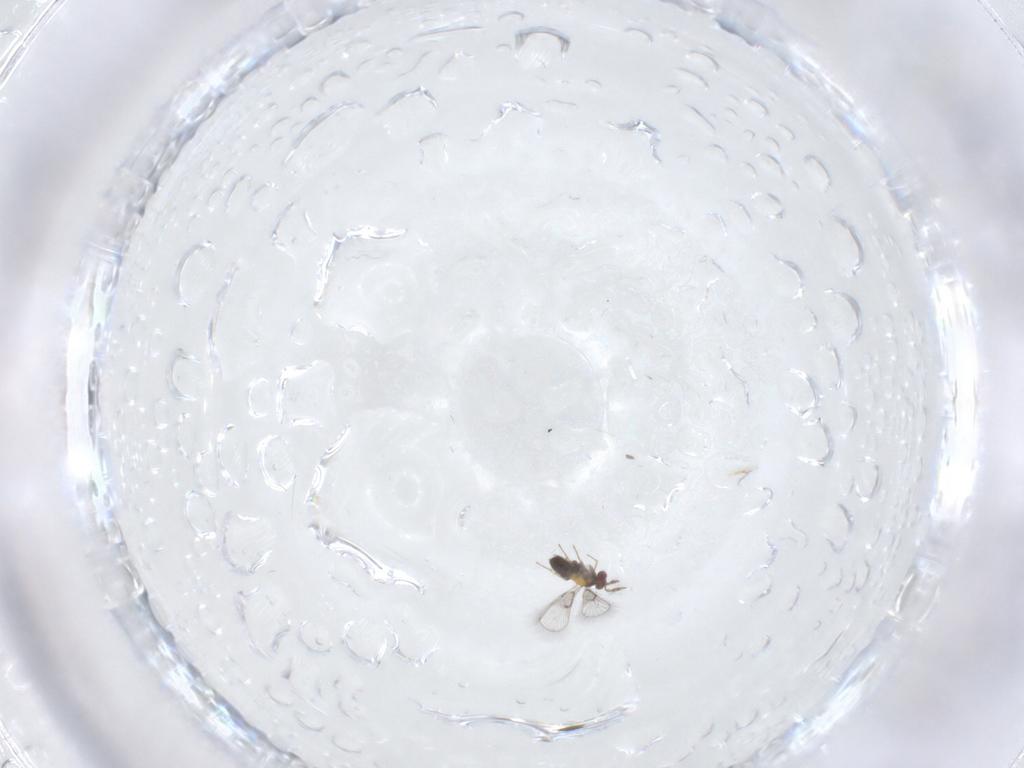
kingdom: Animalia
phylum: Arthropoda
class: Insecta
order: Hymenoptera
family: Trichogrammatidae
